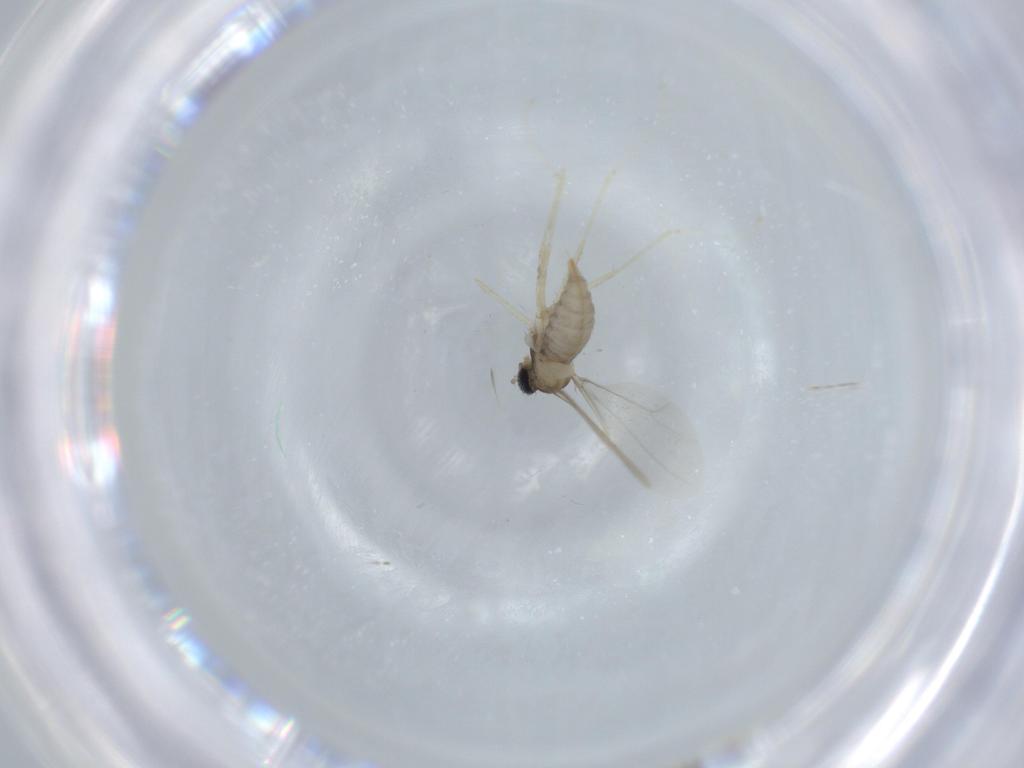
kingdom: Animalia
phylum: Arthropoda
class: Insecta
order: Diptera
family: Cecidomyiidae
